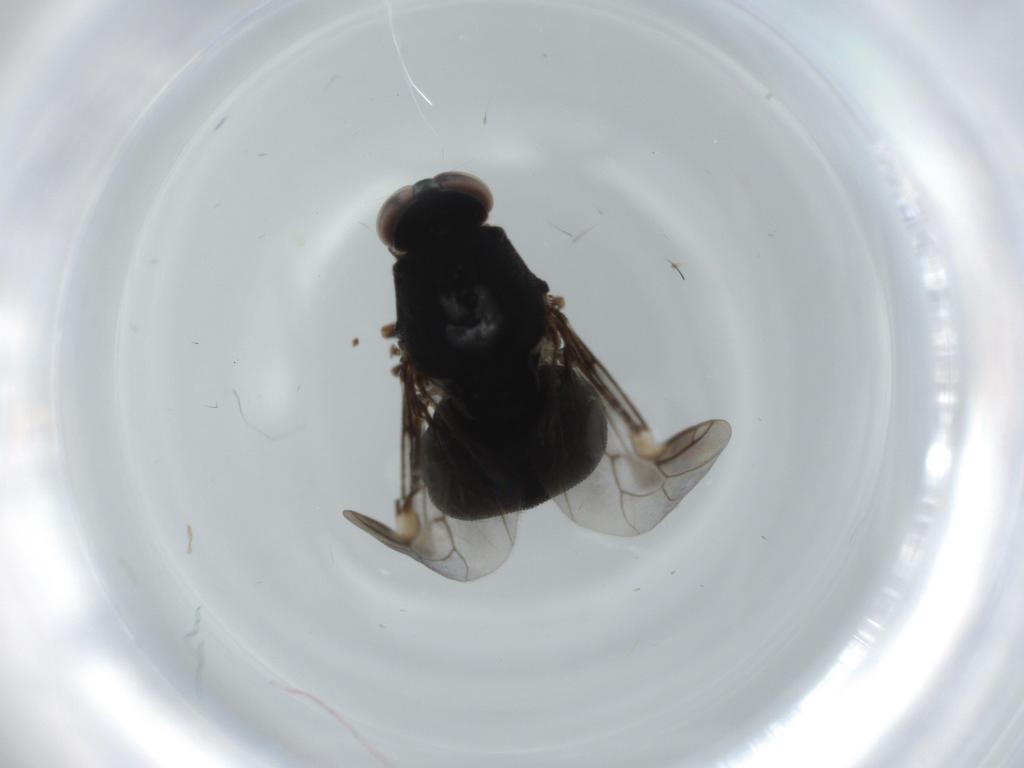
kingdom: Animalia
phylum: Arthropoda
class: Insecta
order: Diptera
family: Stratiomyidae
